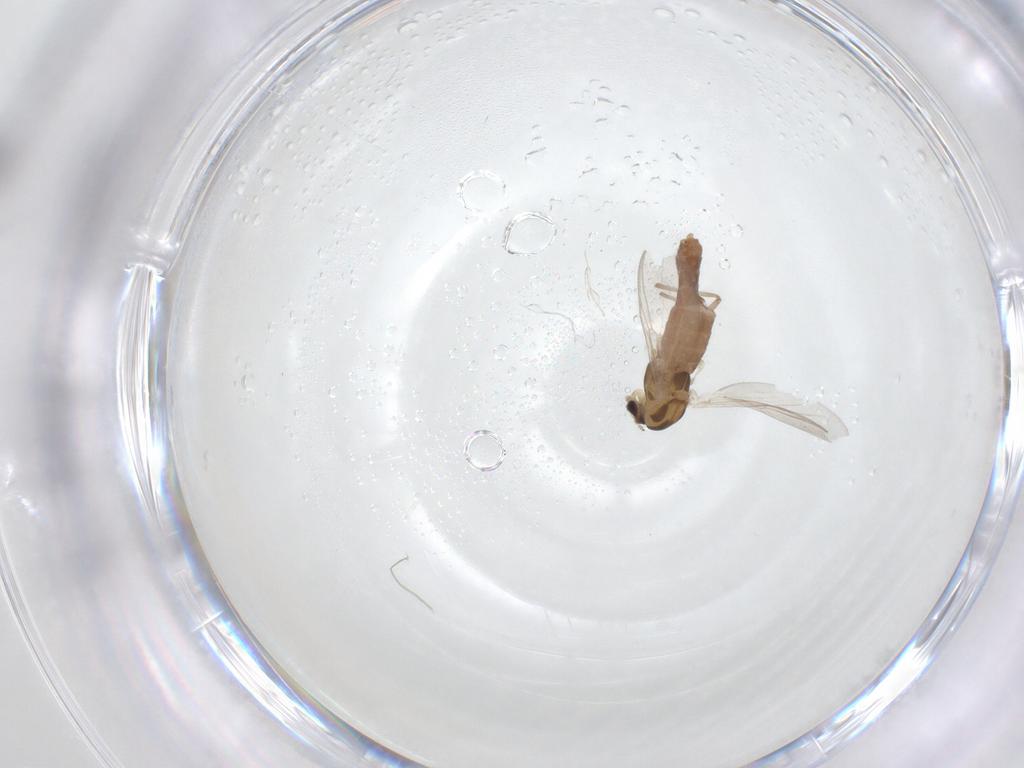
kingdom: Animalia
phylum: Arthropoda
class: Insecta
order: Diptera
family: Chironomidae
